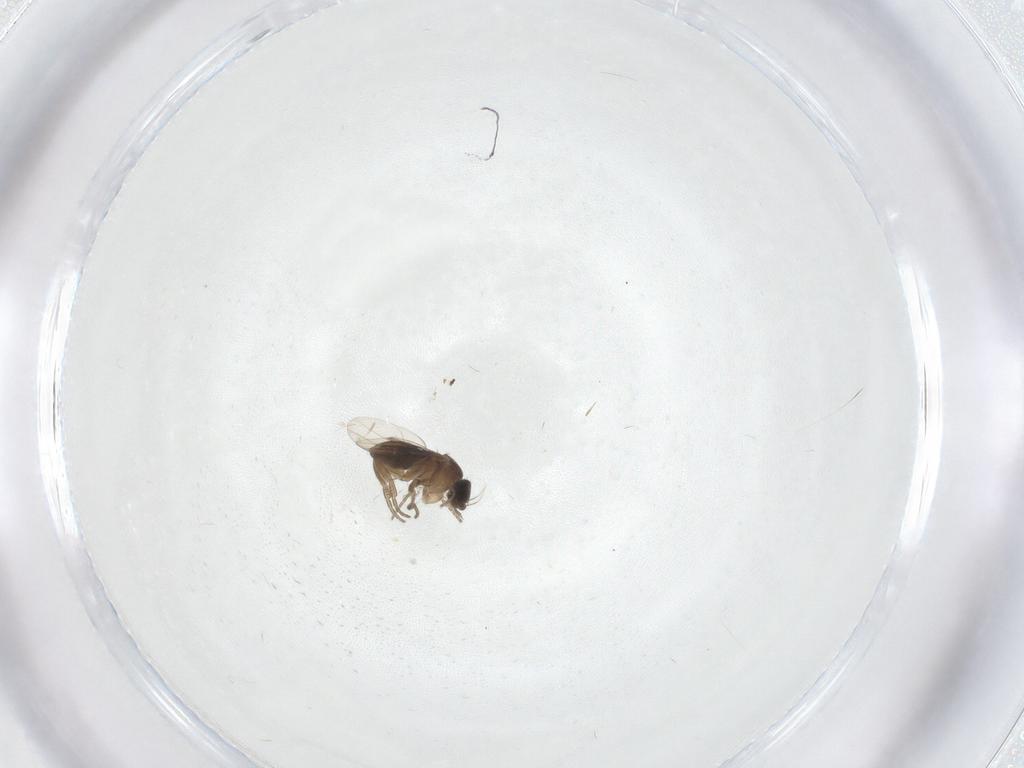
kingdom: Animalia
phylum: Arthropoda
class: Insecta
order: Diptera
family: Phoridae
